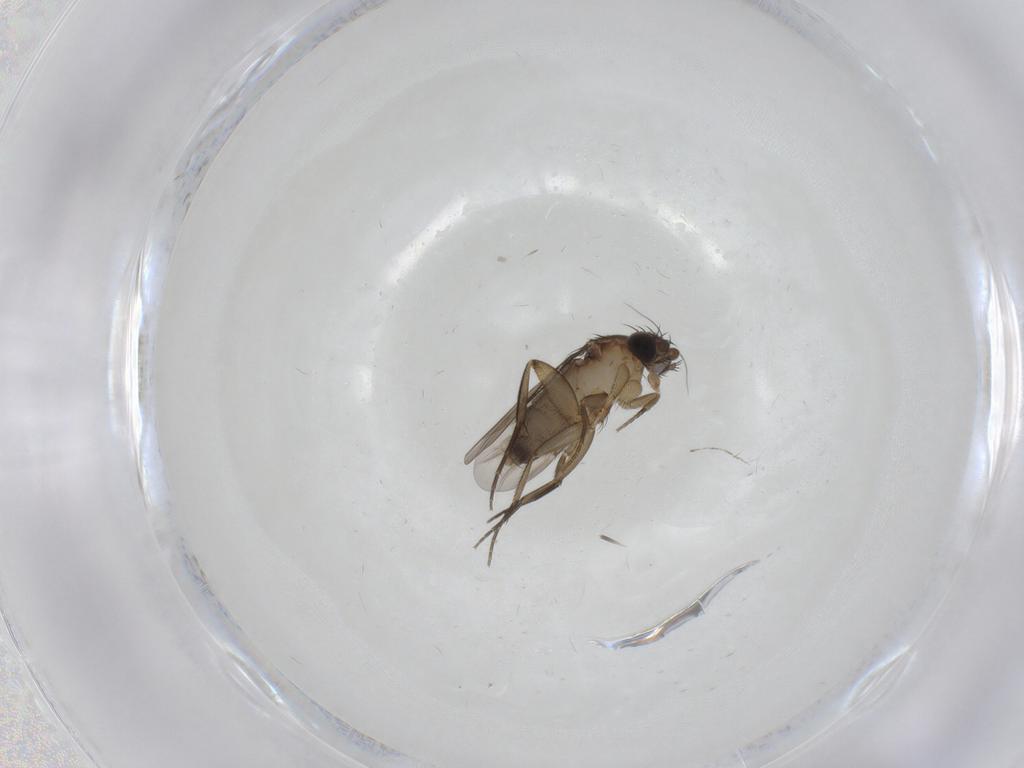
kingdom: Animalia
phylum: Arthropoda
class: Insecta
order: Diptera
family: Phoridae
